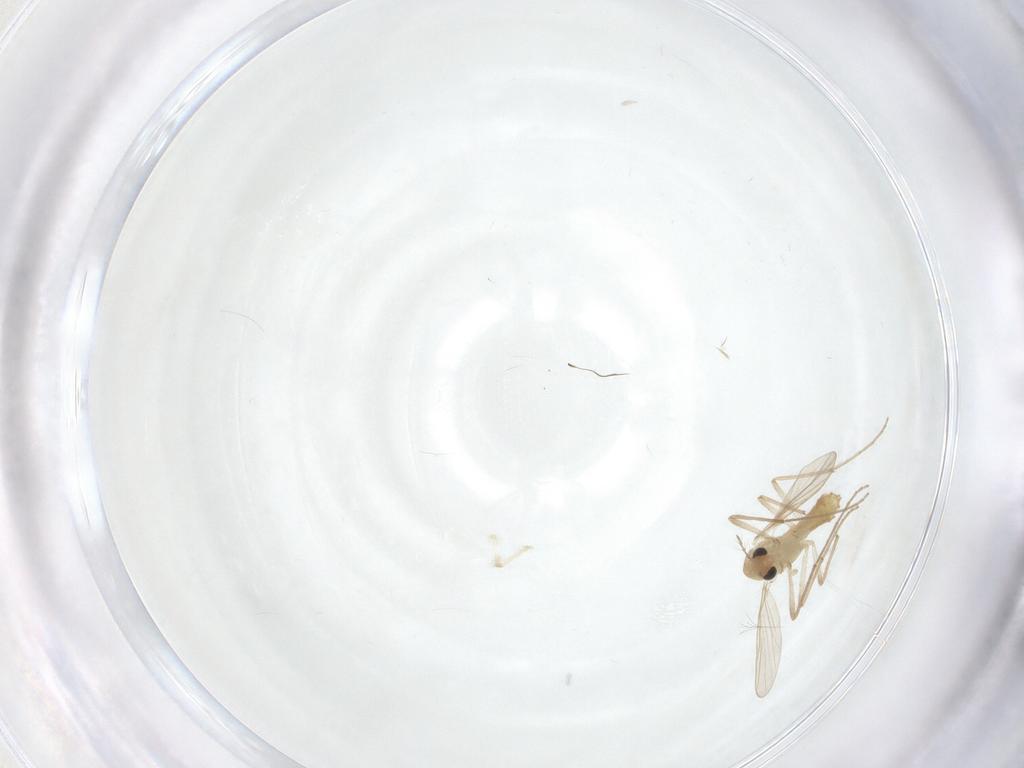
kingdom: Animalia
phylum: Arthropoda
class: Insecta
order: Diptera
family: Chironomidae
